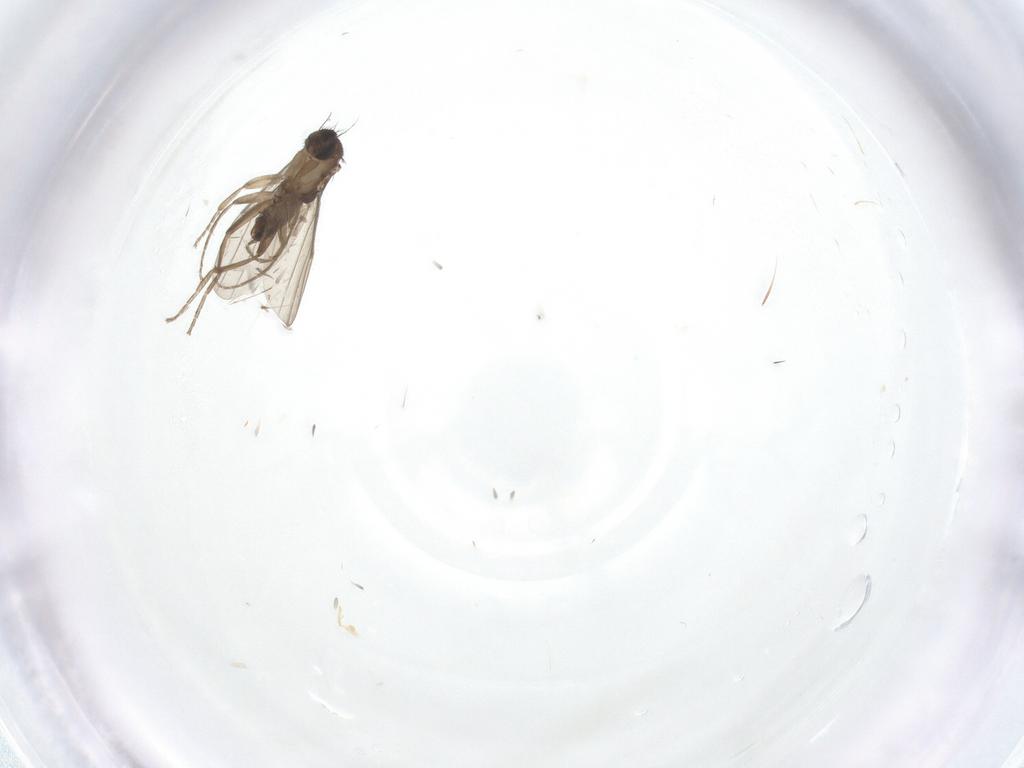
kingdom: Animalia
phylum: Arthropoda
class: Insecta
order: Diptera
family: Phoridae
